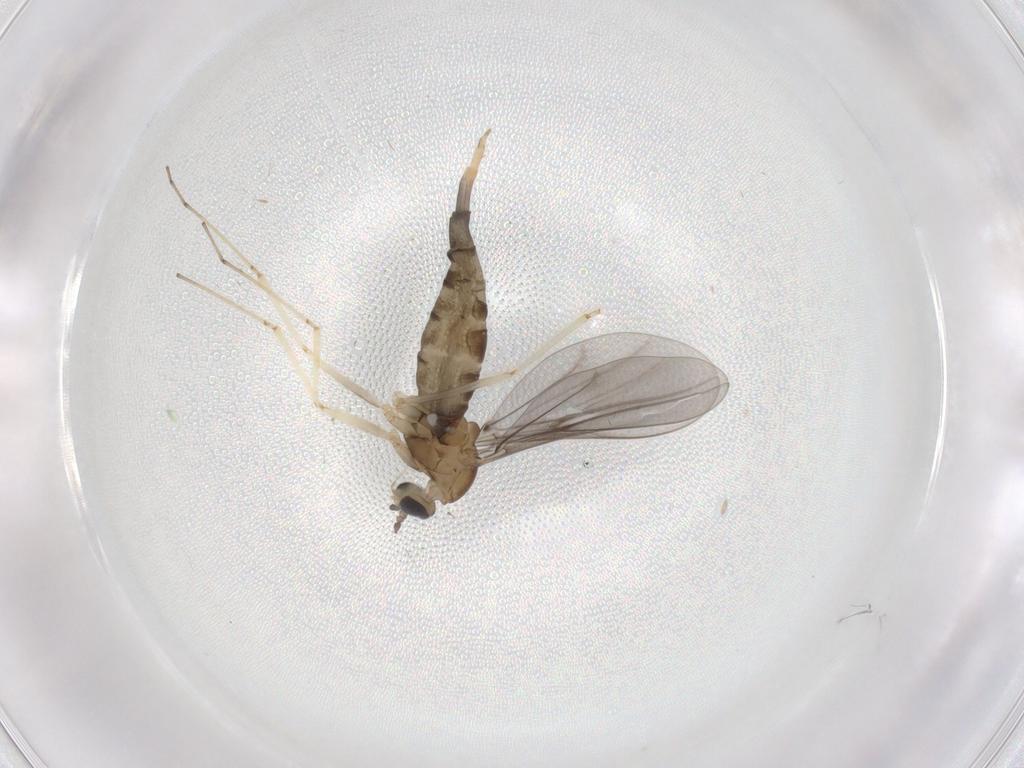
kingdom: Animalia
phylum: Arthropoda
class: Insecta
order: Diptera
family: Cecidomyiidae
